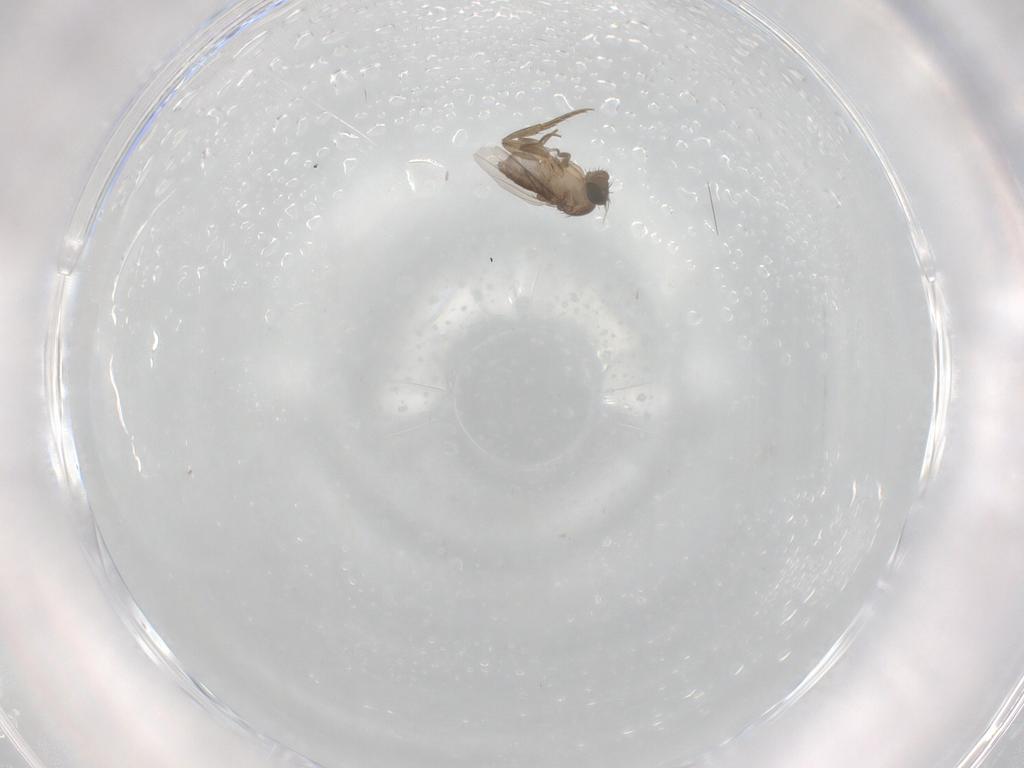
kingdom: Animalia
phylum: Arthropoda
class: Insecta
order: Diptera
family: Phoridae
